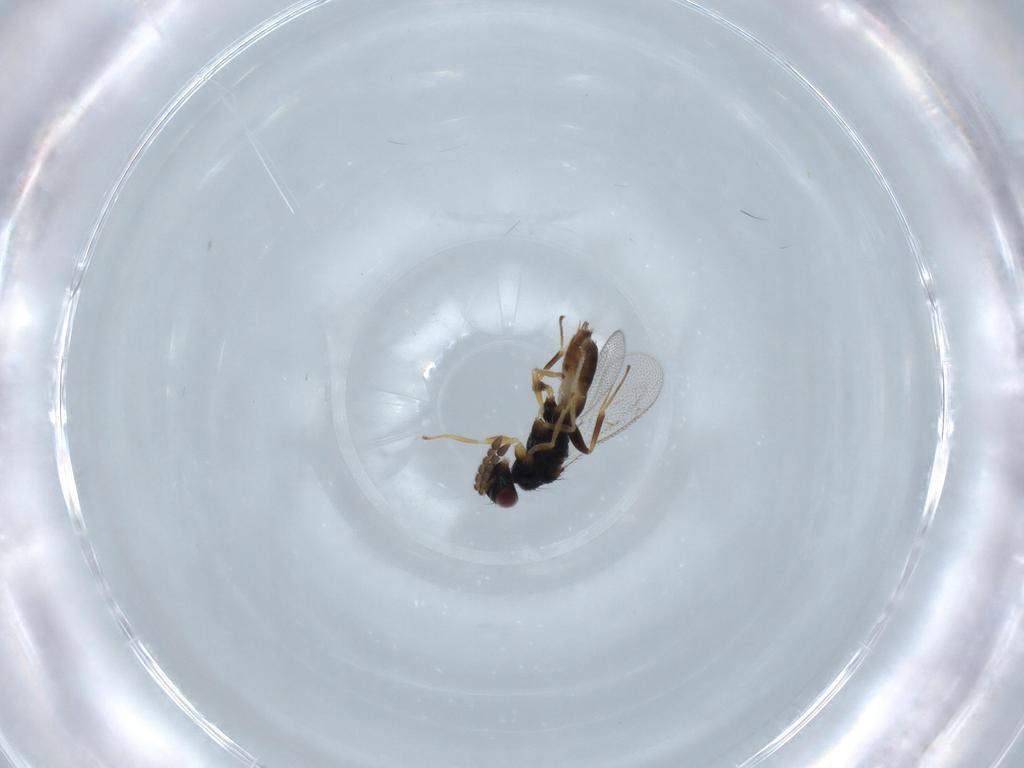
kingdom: Animalia
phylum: Arthropoda
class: Insecta
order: Hymenoptera
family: Eulophidae
